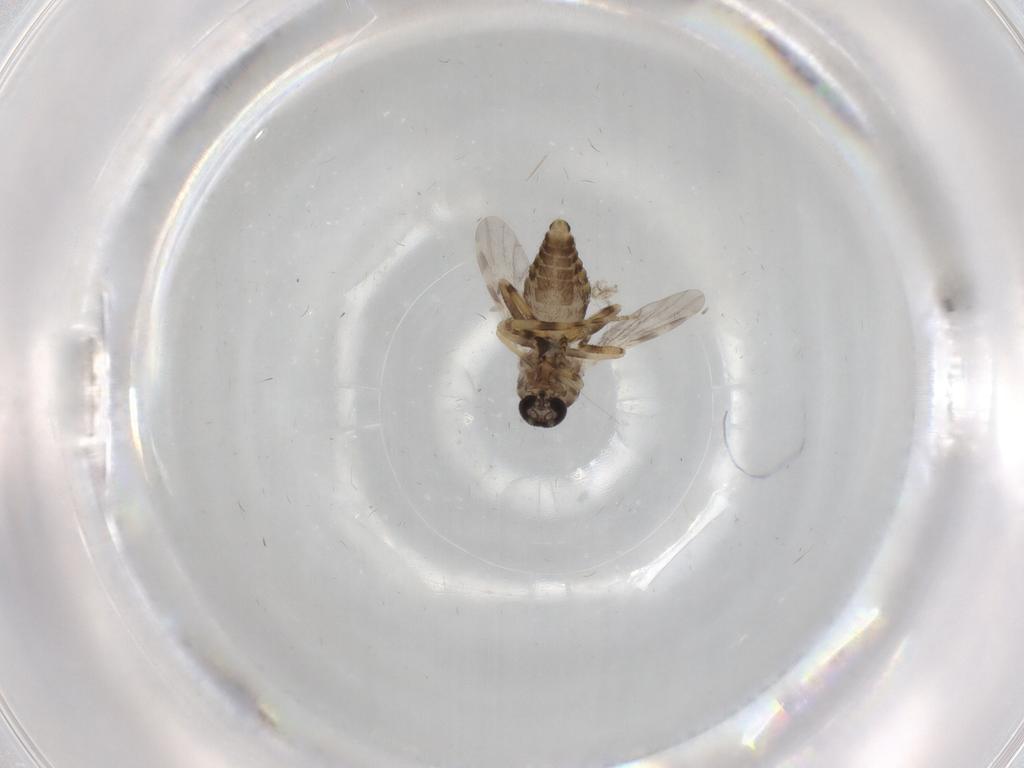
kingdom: Animalia
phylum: Arthropoda
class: Insecta
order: Diptera
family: Ceratopogonidae
